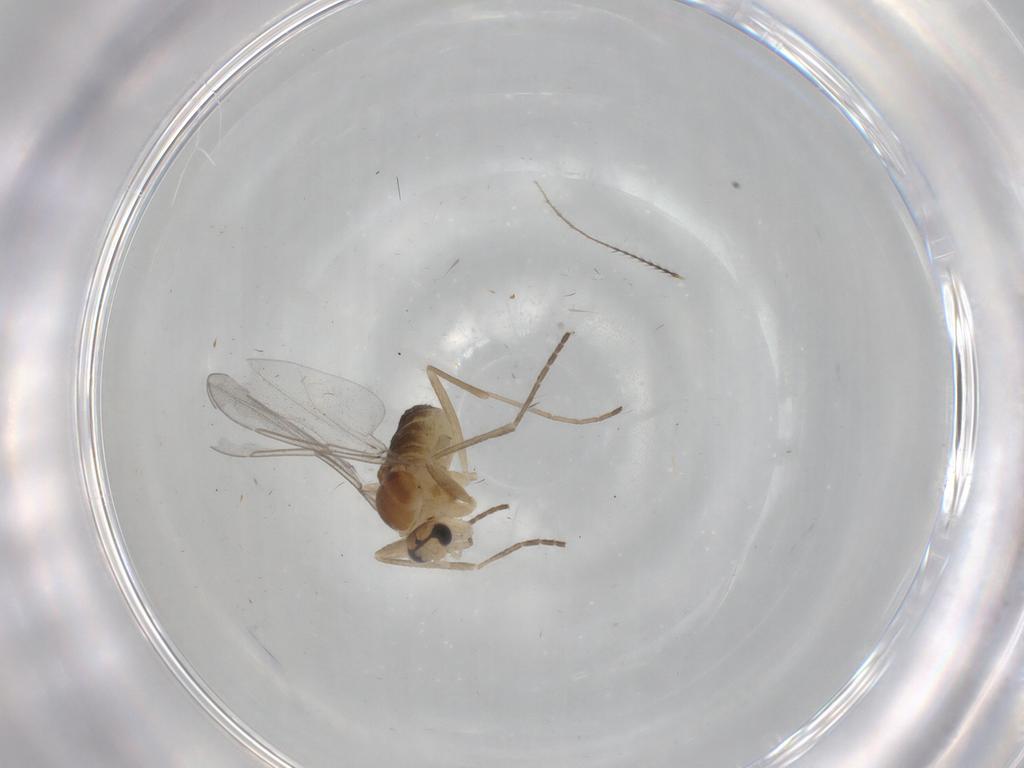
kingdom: Animalia
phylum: Arthropoda
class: Insecta
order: Diptera
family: Cecidomyiidae
